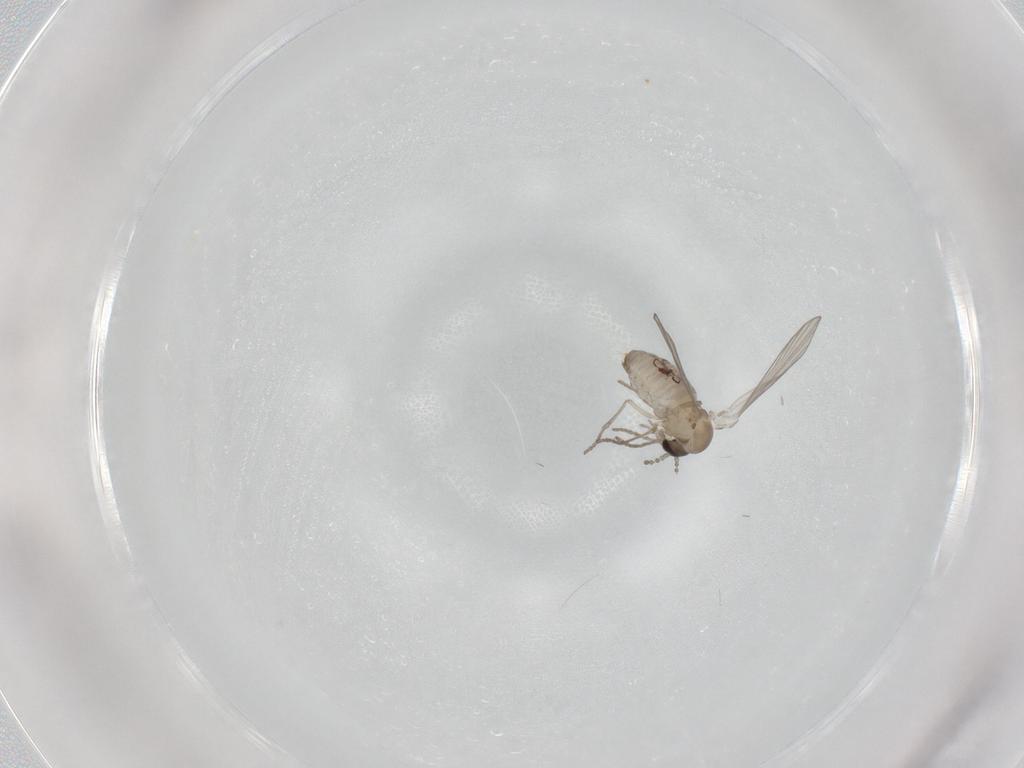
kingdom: Animalia
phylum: Arthropoda
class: Insecta
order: Diptera
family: Psychodidae
